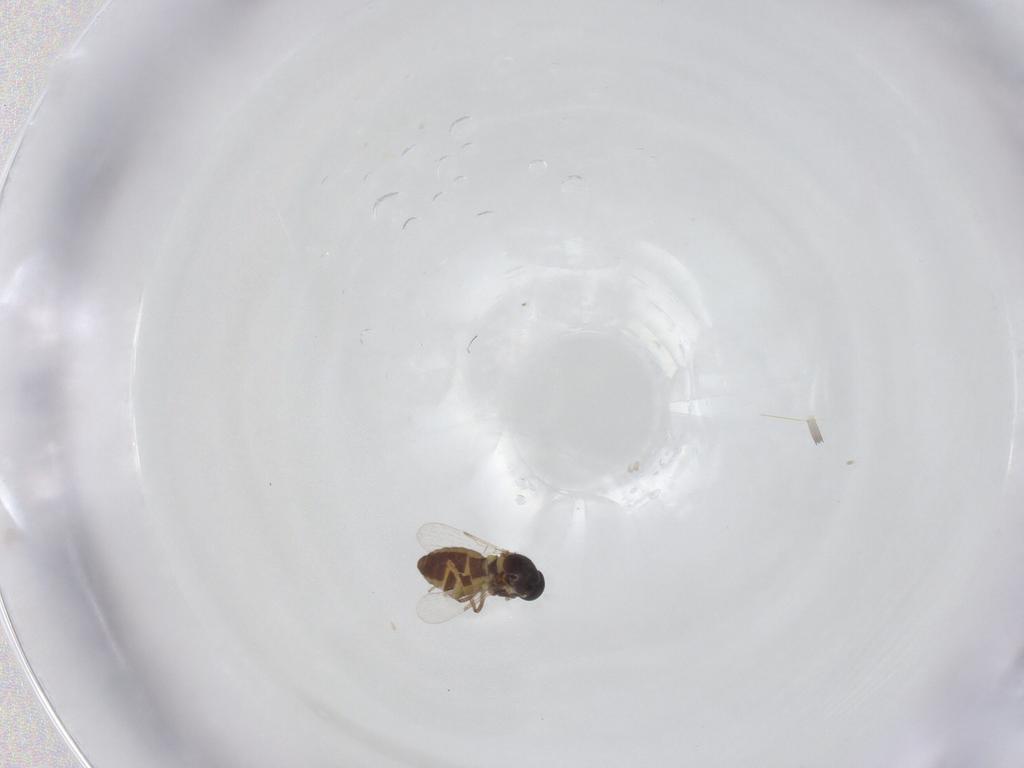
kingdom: Animalia
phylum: Arthropoda
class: Insecta
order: Diptera
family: Ceratopogonidae
